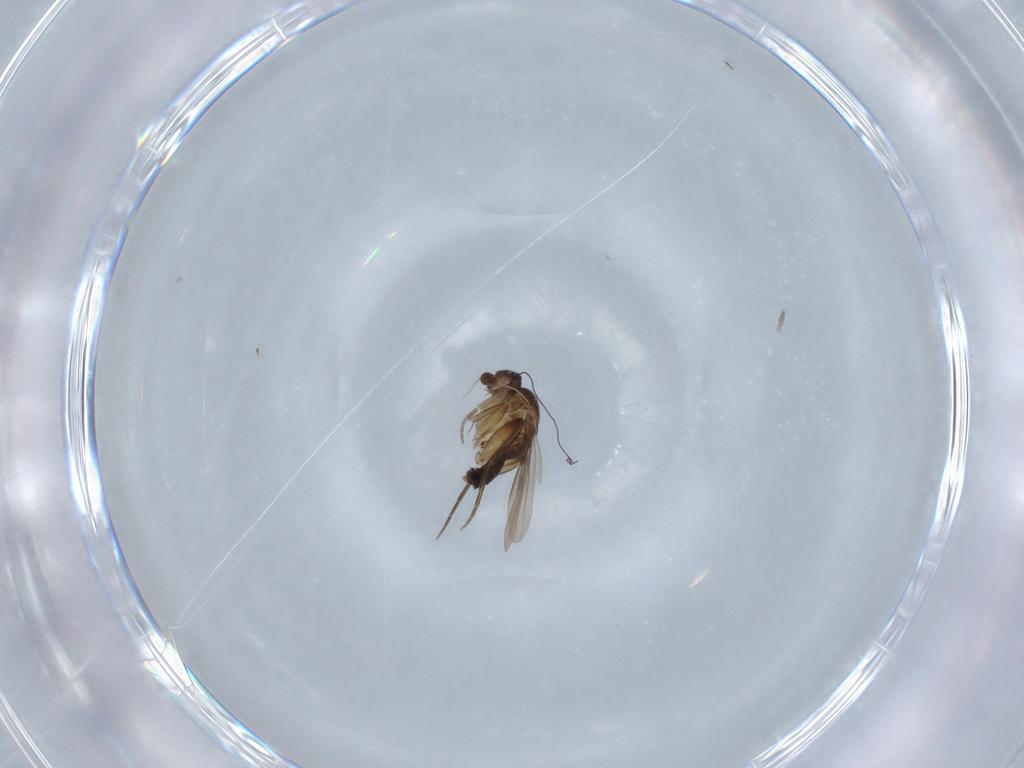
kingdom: Animalia
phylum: Arthropoda
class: Insecta
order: Diptera
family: Phoridae
